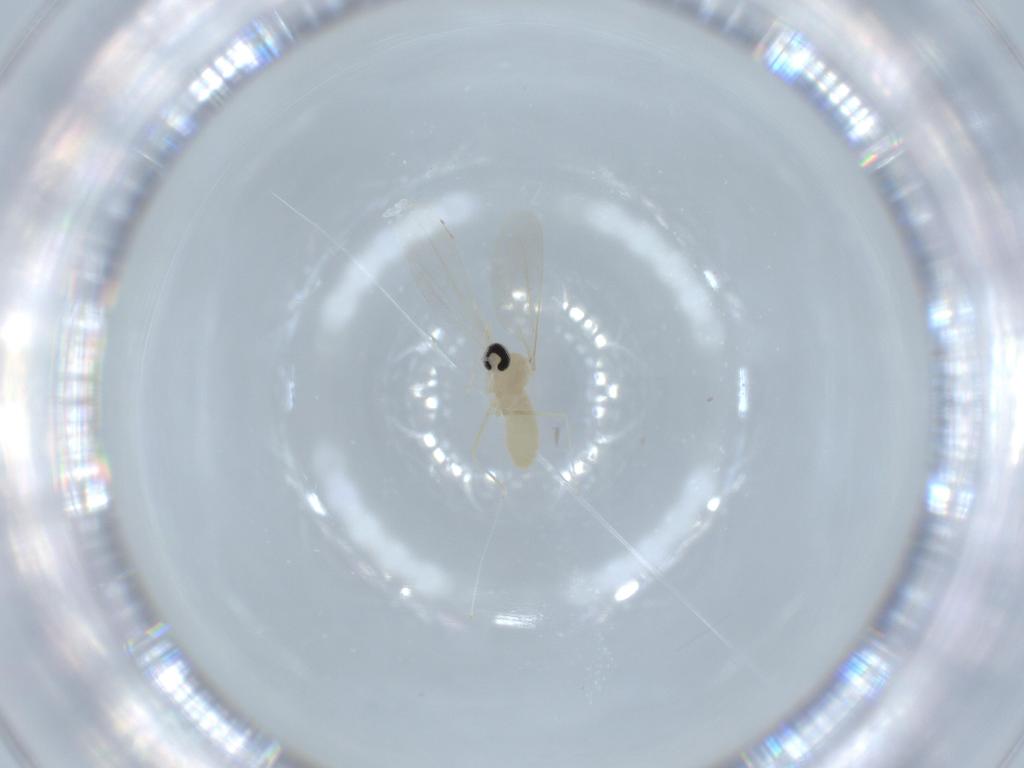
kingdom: Animalia
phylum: Arthropoda
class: Insecta
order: Diptera
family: Cecidomyiidae
